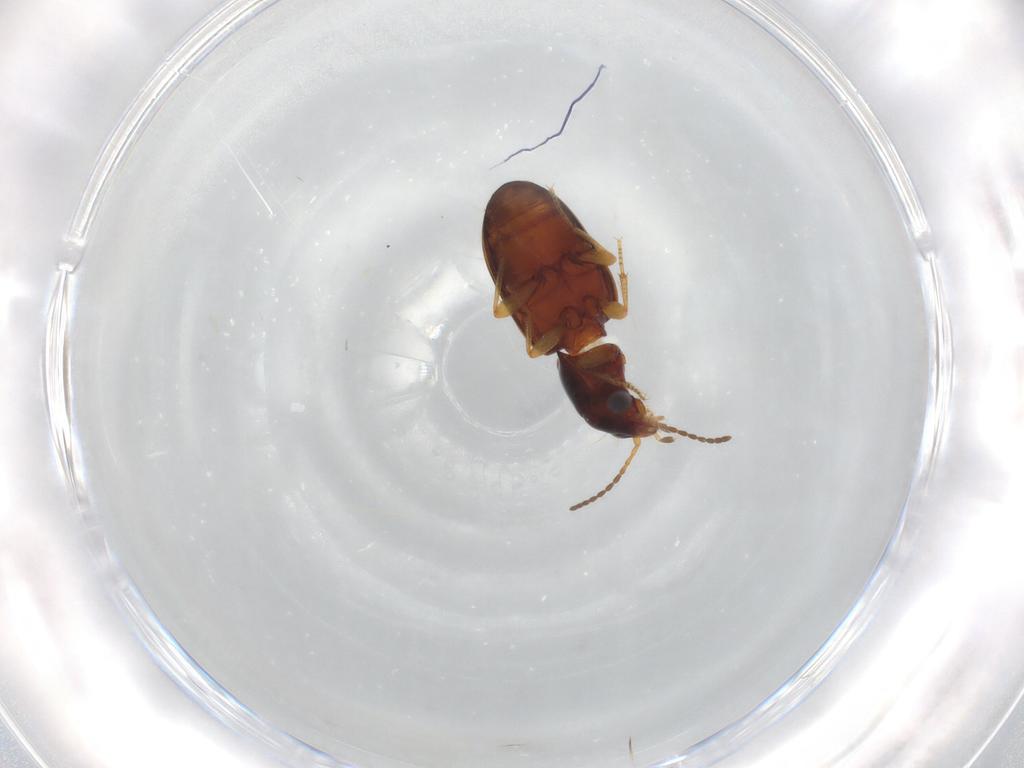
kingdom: Animalia
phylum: Arthropoda
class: Insecta
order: Coleoptera
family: Carabidae
